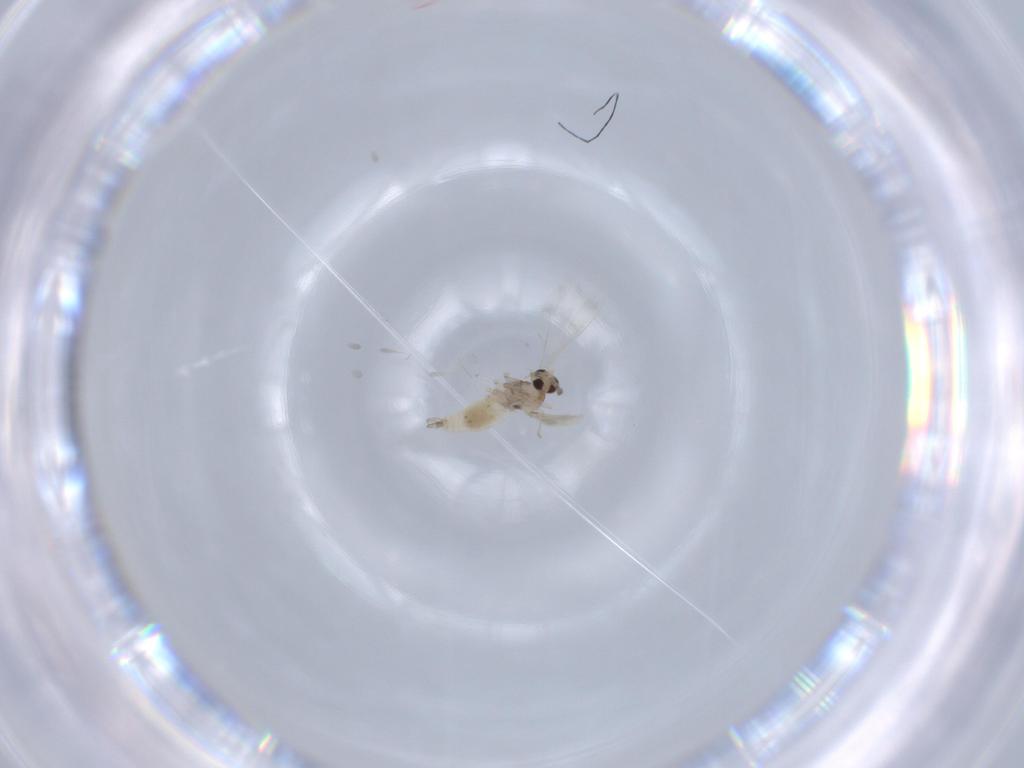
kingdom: Animalia
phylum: Arthropoda
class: Insecta
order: Diptera
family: Cecidomyiidae
